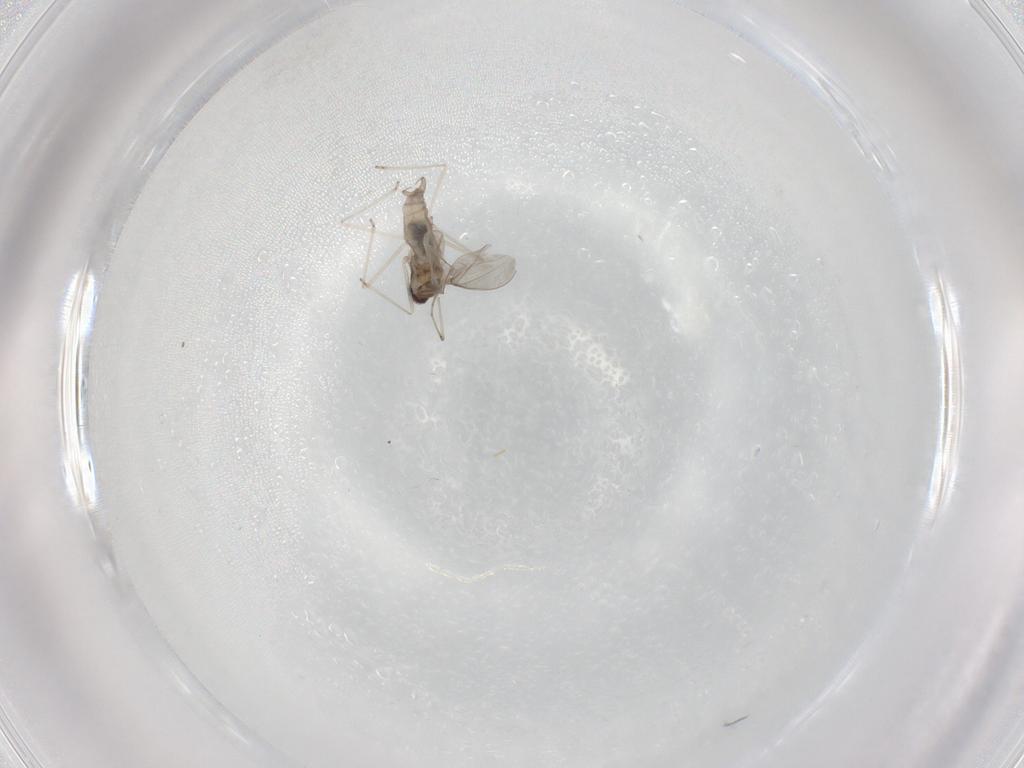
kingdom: Animalia
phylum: Arthropoda
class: Insecta
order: Diptera
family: Cecidomyiidae
